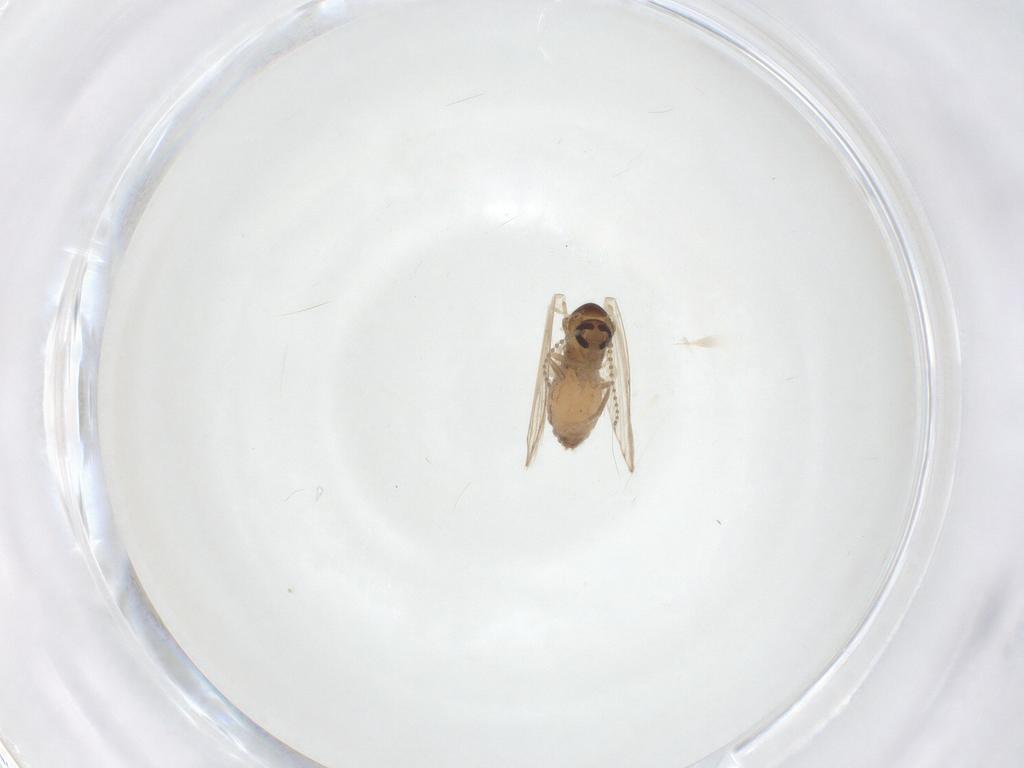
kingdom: Animalia
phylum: Arthropoda
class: Insecta
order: Diptera
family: Psychodidae
